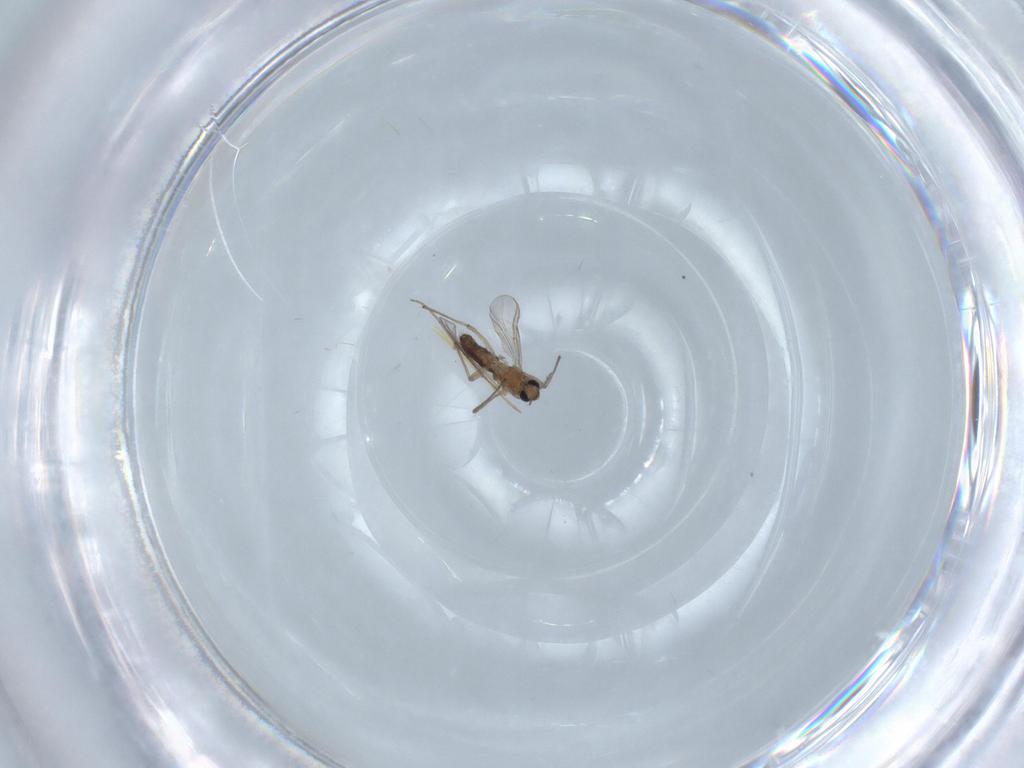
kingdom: Animalia
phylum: Arthropoda
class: Insecta
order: Diptera
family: Chironomidae
